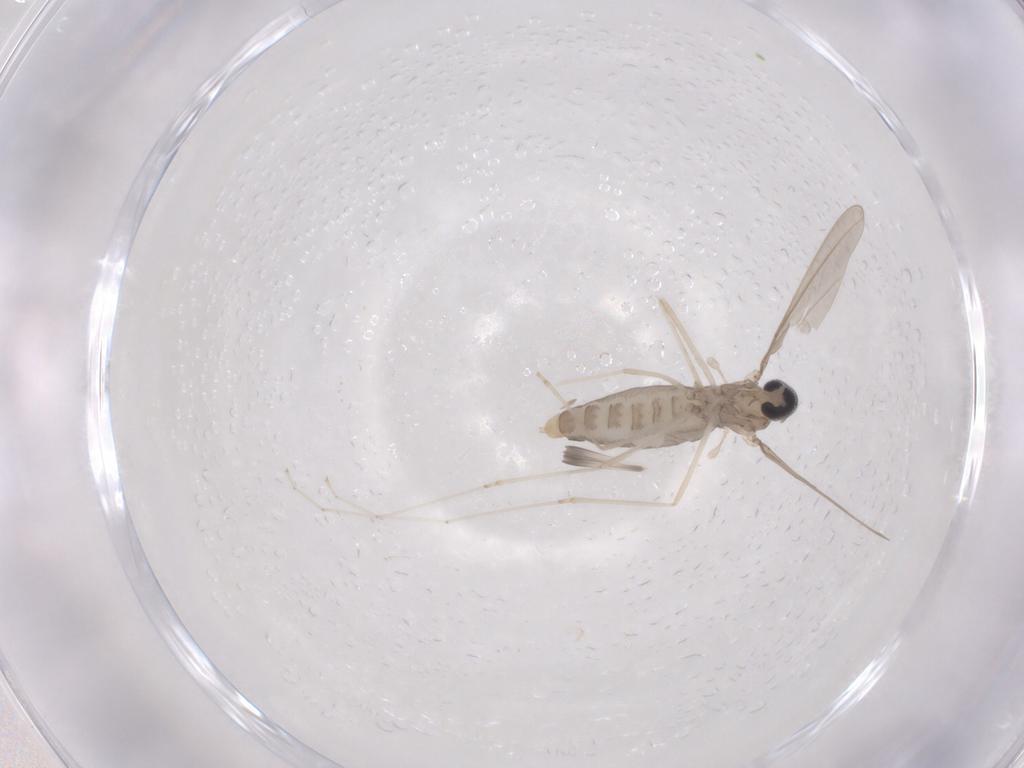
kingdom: Animalia
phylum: Arthropoda
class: Insecta
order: Diptera
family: Cecidomyiidae
